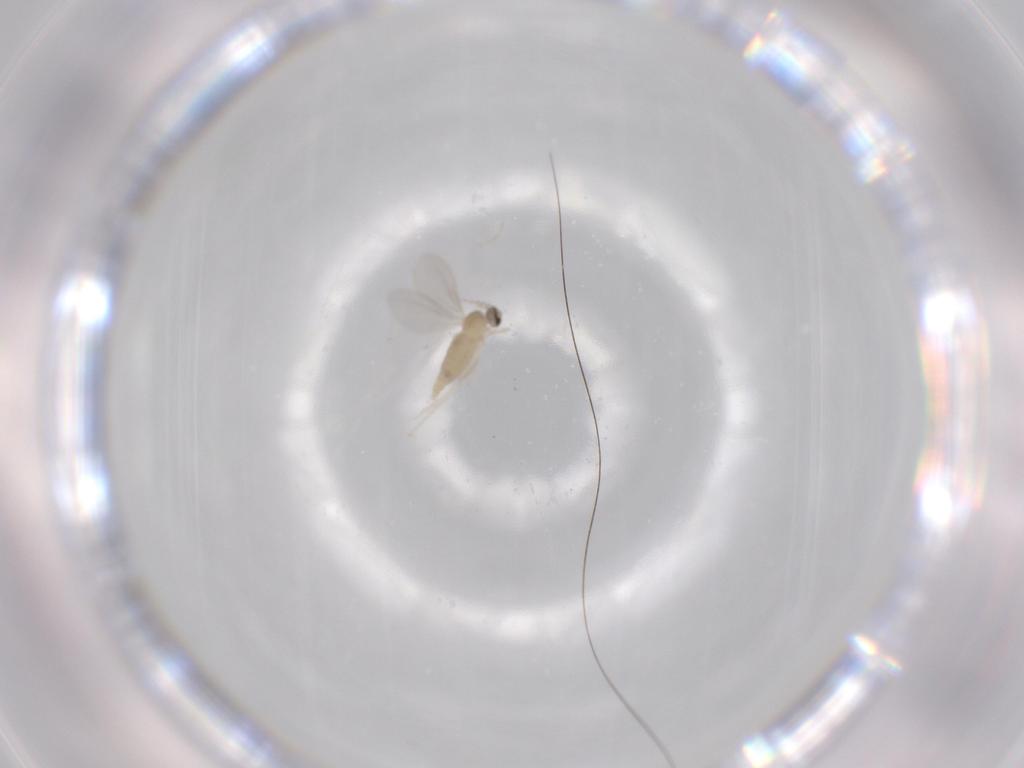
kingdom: Animalia
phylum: Arthropoda
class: Insecta
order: Diptera
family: Cecidomyiidae
